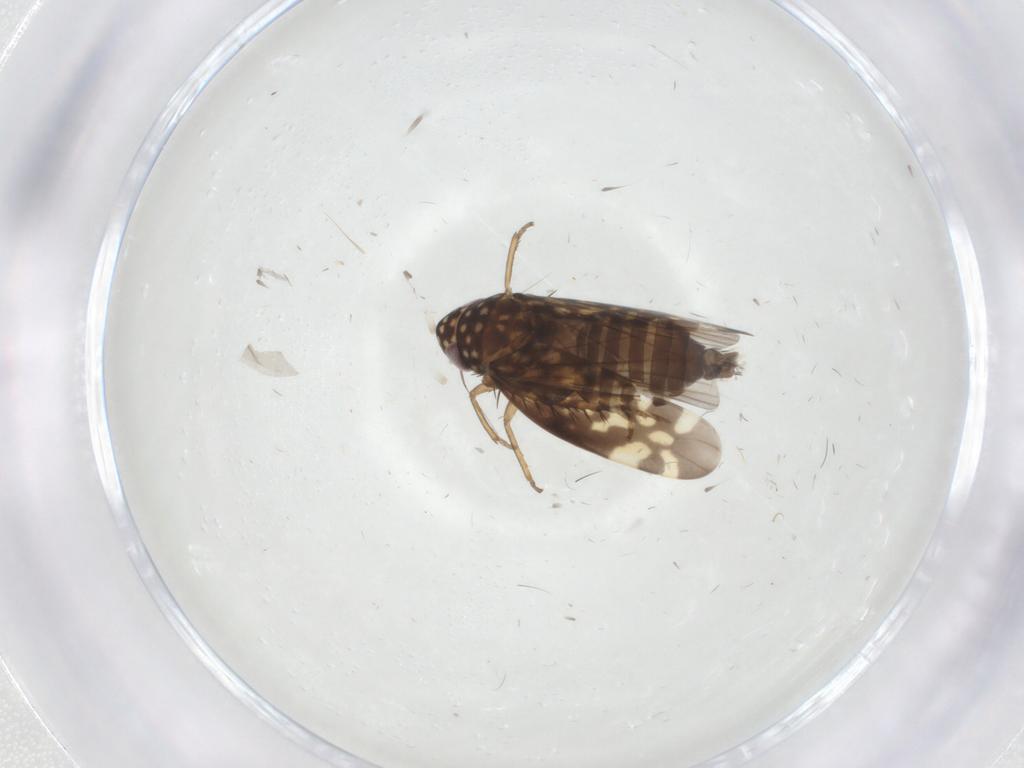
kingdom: Animalia
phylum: Arthropoda
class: Insecta
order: Hemiptera
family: Cicadellidae
